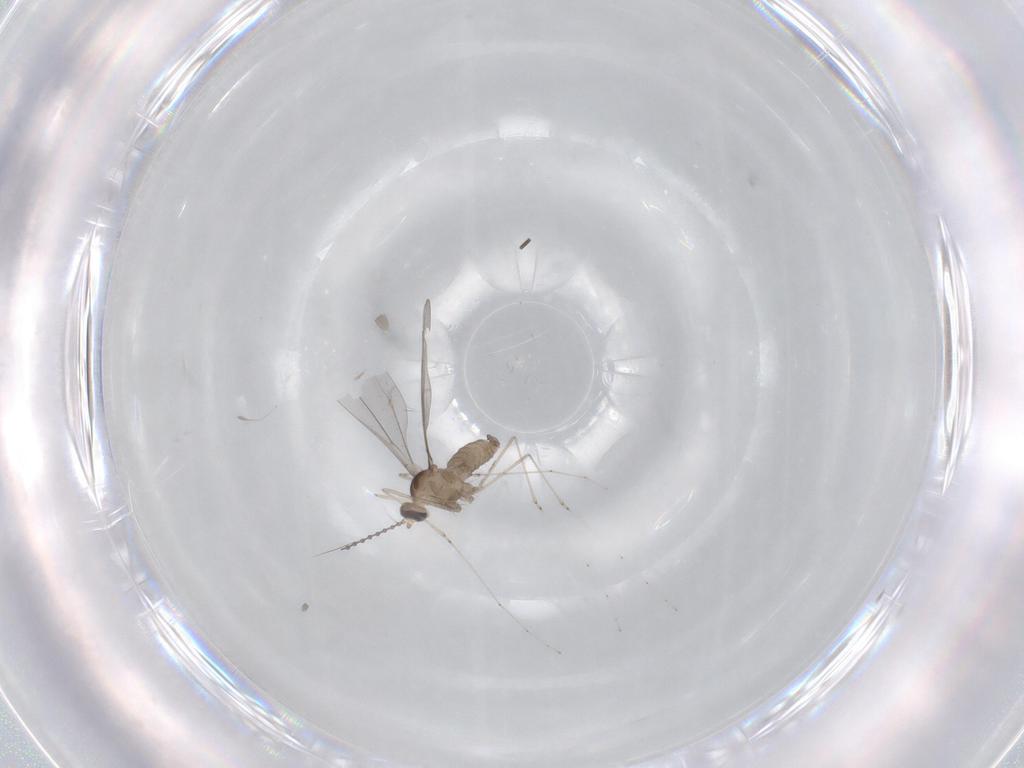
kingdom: Animalia
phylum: Arthropoda
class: Insecta
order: Diptera
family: Cecidomyiidae
